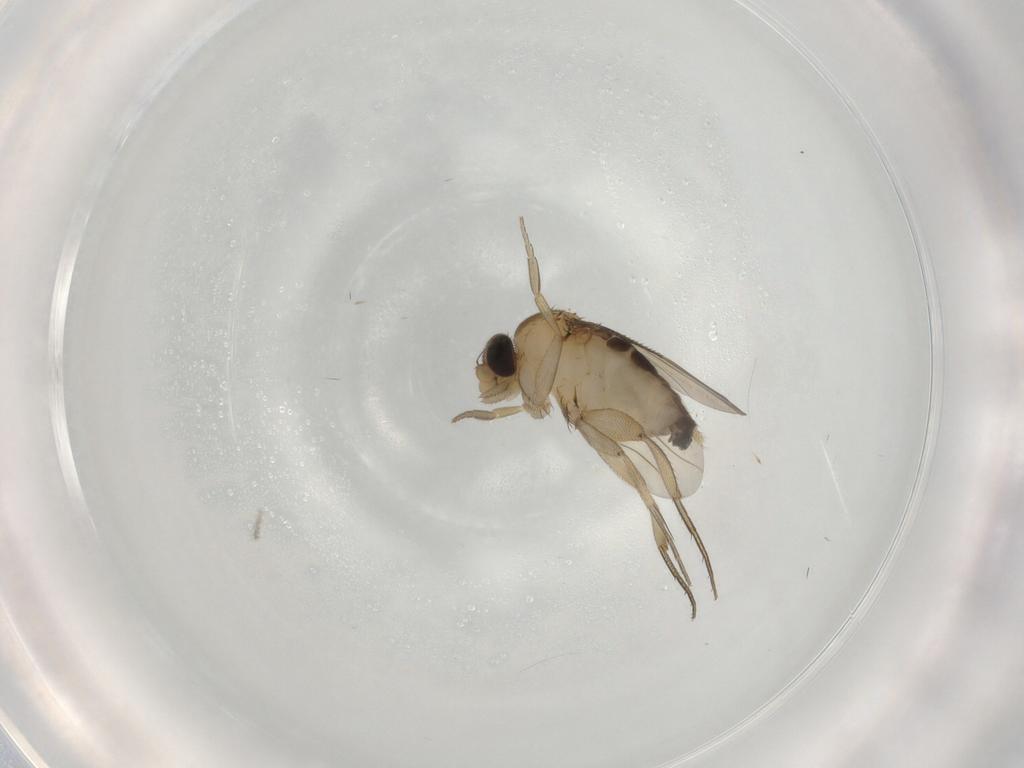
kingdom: Animalia
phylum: Arthropoda
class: Insecta
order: Diptera
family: Phoridae
